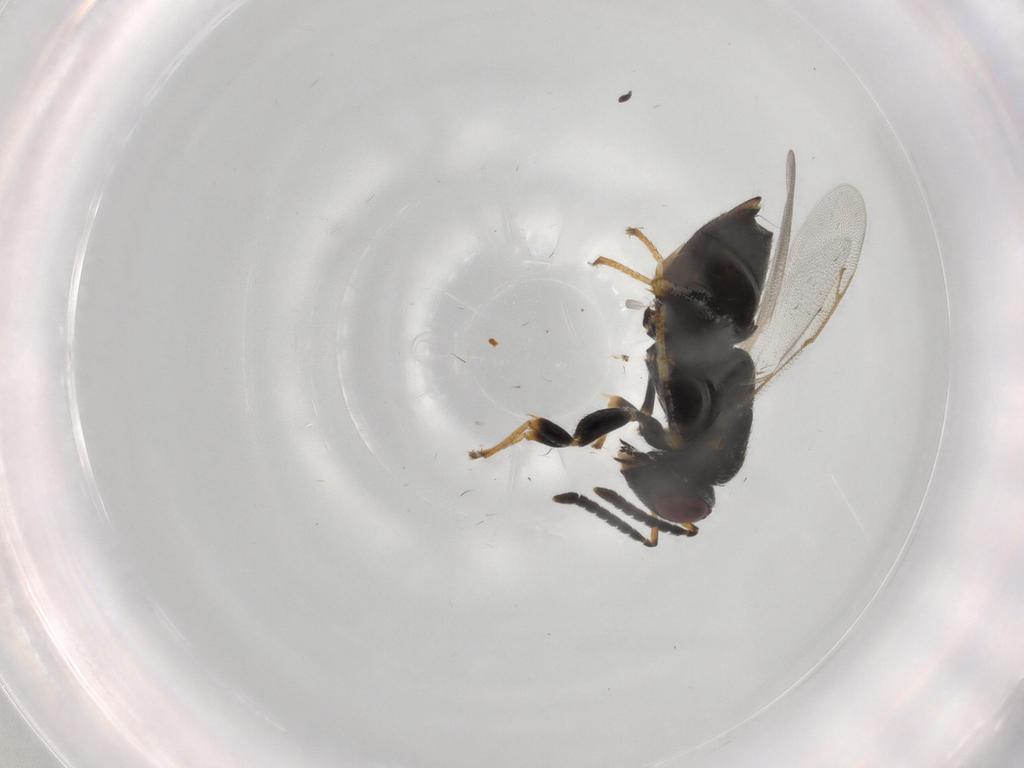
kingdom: Animalia
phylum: Arthropoda
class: Insecta
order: Hymenoptera
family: Tanaostigmatidae
